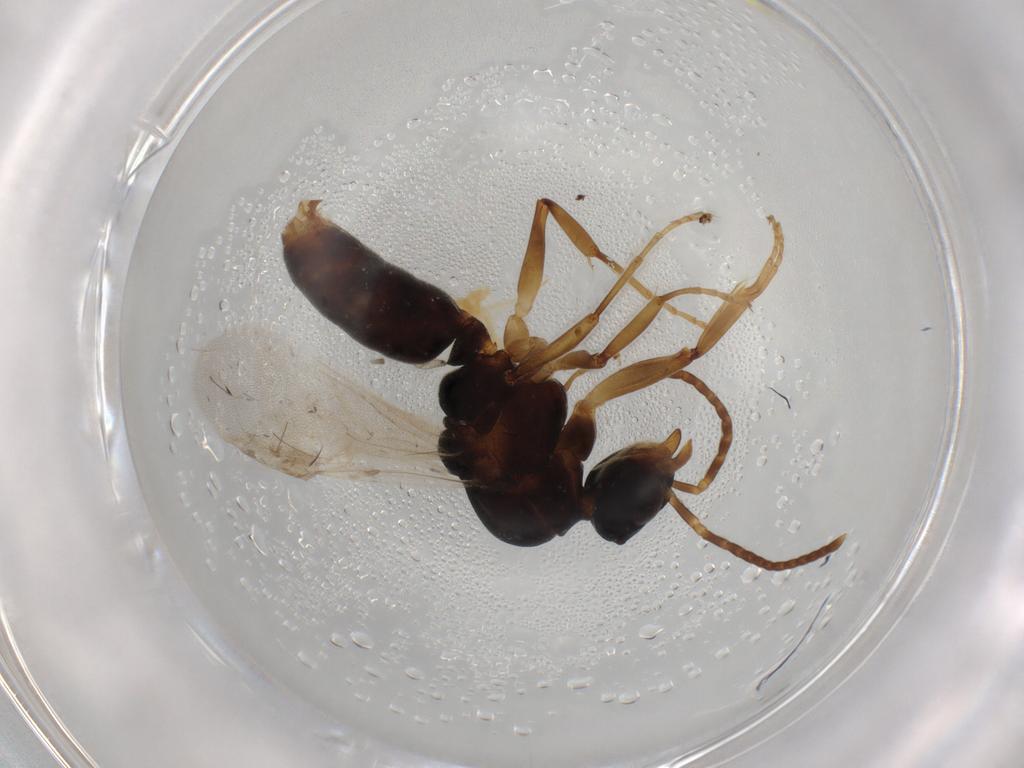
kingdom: Animalia
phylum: Arthropoda
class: Insecta
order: Hymenoptera
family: Formicidae
